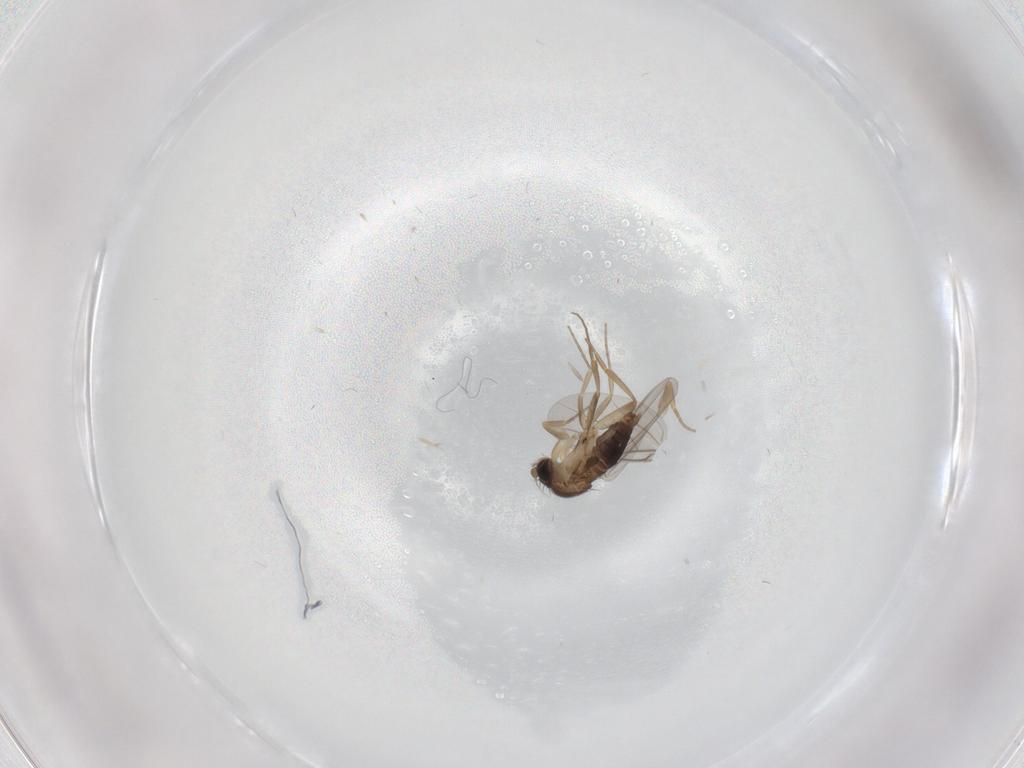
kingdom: Animalia
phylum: Arthropoda
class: Insecta
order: Diptera
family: Phoridae
